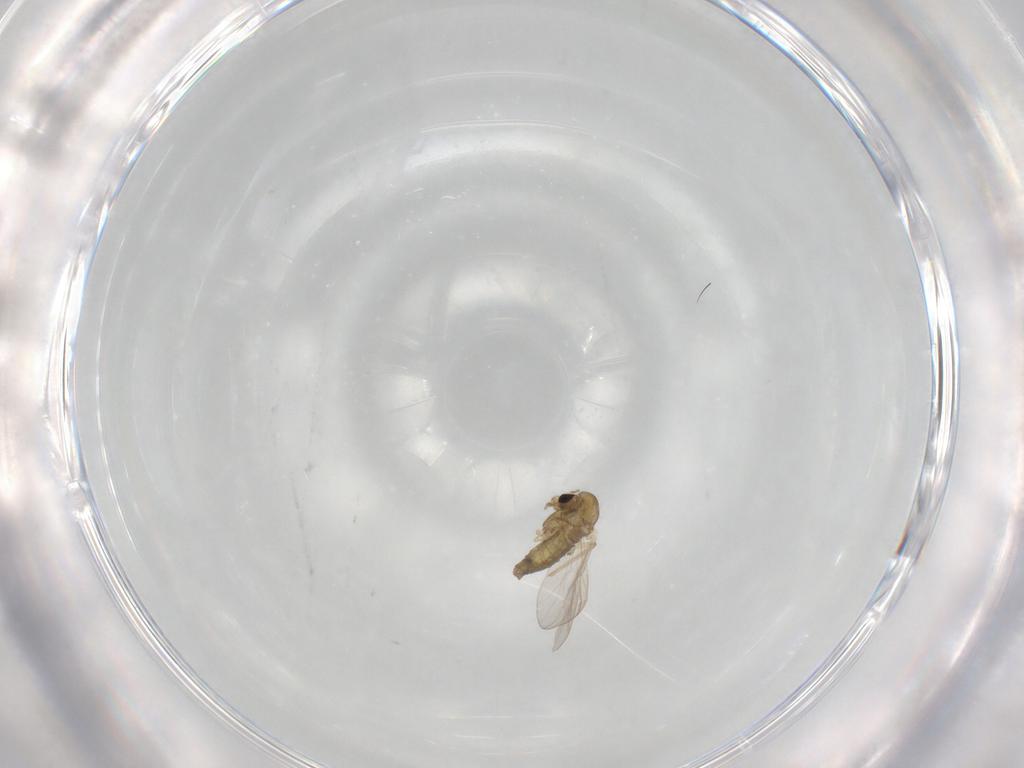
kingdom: Animalia
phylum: Arthropoda
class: Insecta
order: Diptera
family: Chironomidae
